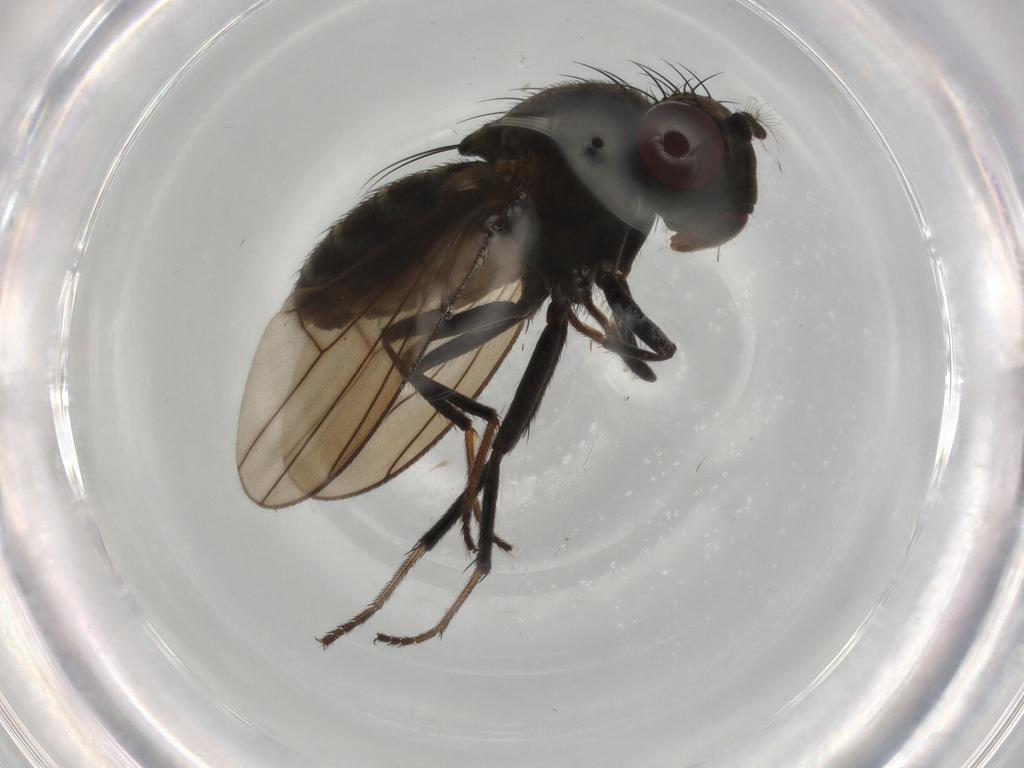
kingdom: Animalia
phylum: Arthropoda
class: Insecta
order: Diptera
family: Ephydridae
